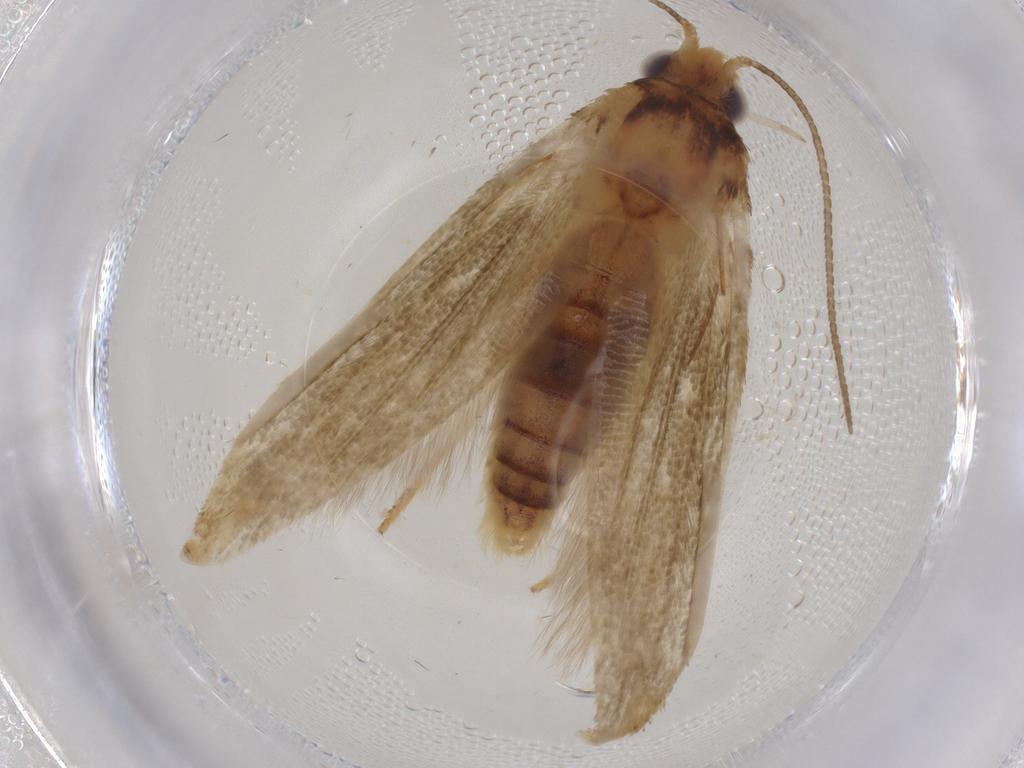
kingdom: Animalia
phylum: Arthropoda
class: Insecta
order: Lepidoptera
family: Blastobasidae
